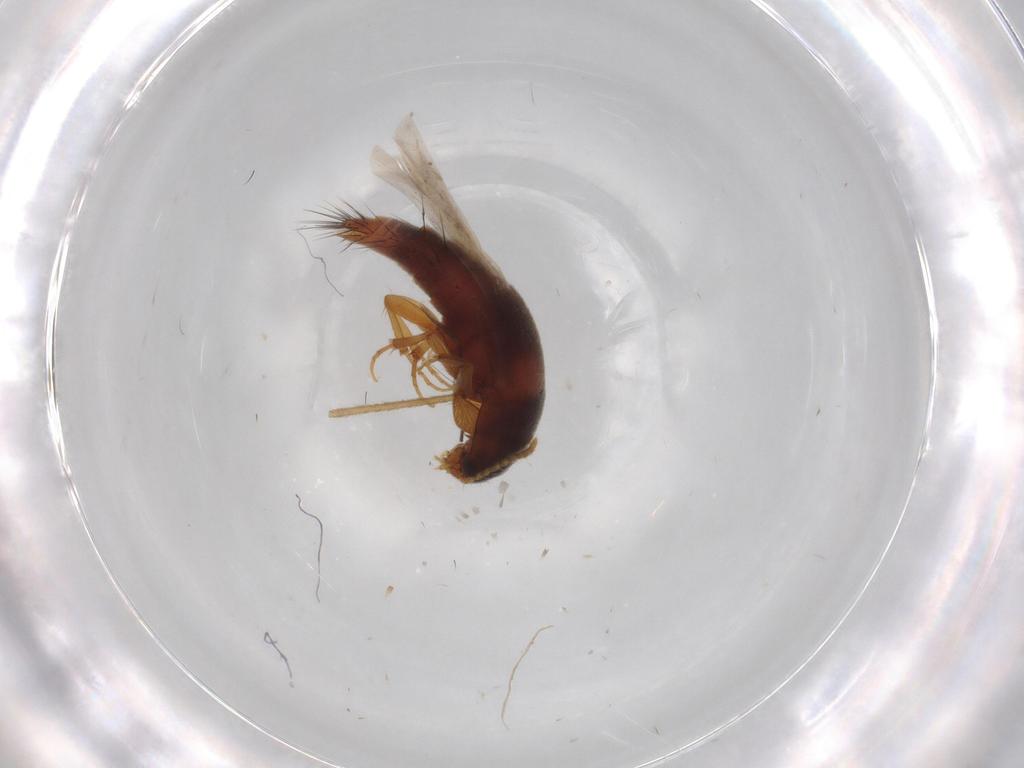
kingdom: Animalia
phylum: Arthropoda
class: Insecta
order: Coleoptera
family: Staphylinidae
